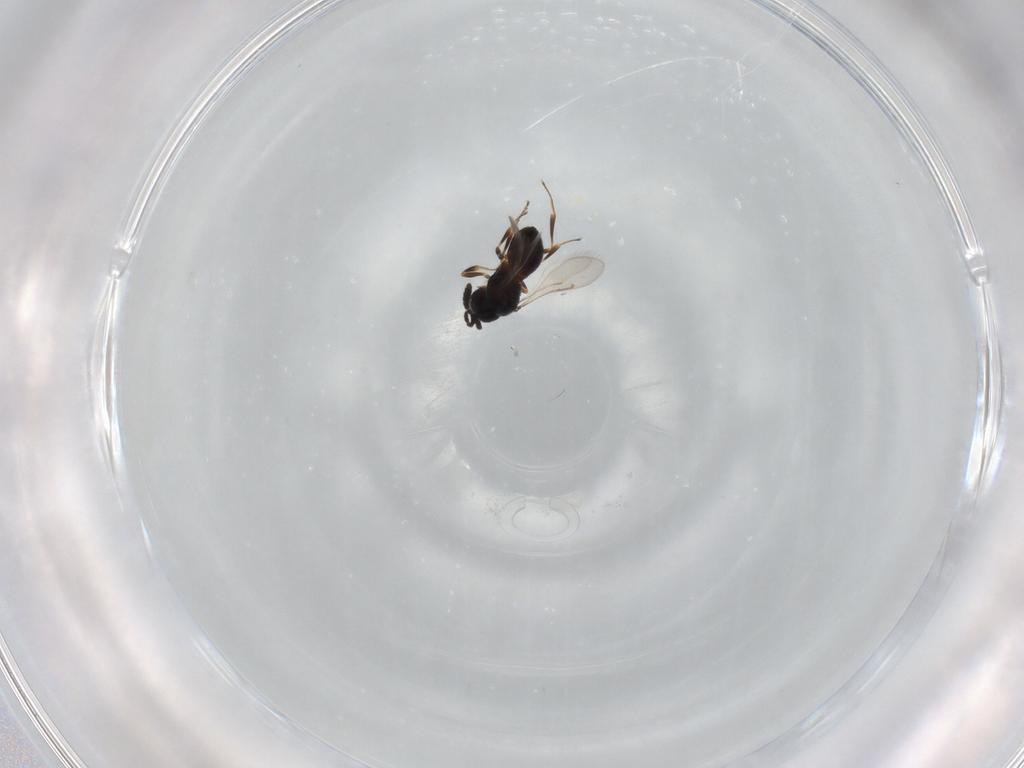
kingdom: Animalia
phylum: Arthropoda
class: Insecta
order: Hymenoptera
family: Scelionidae
